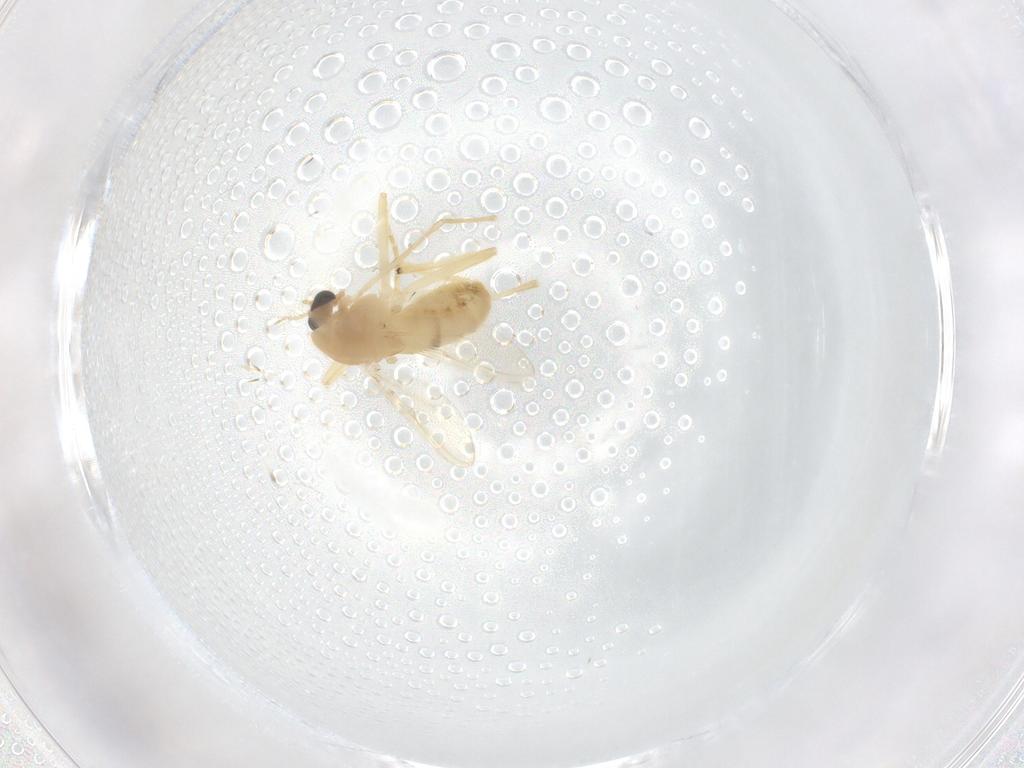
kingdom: Animalia
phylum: Arthropoda
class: Insecta
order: Diptera
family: Chironomidae
